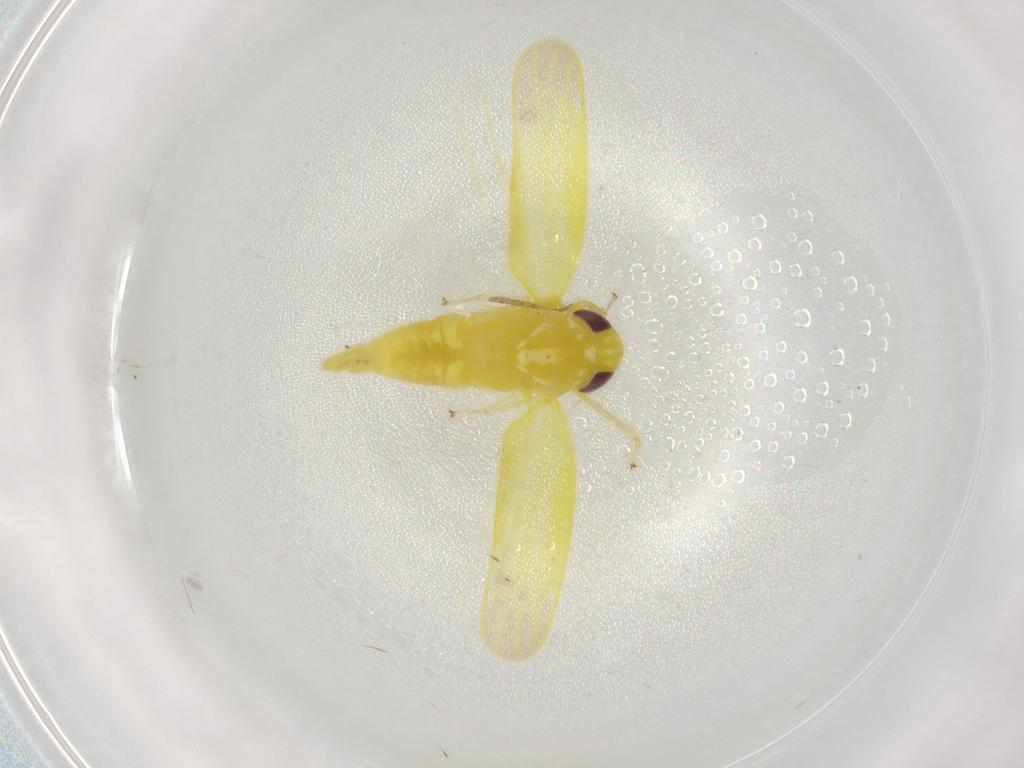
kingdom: Animalia
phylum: Arthropoda
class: Insecta
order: Hemiptera
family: Cicadellidae
